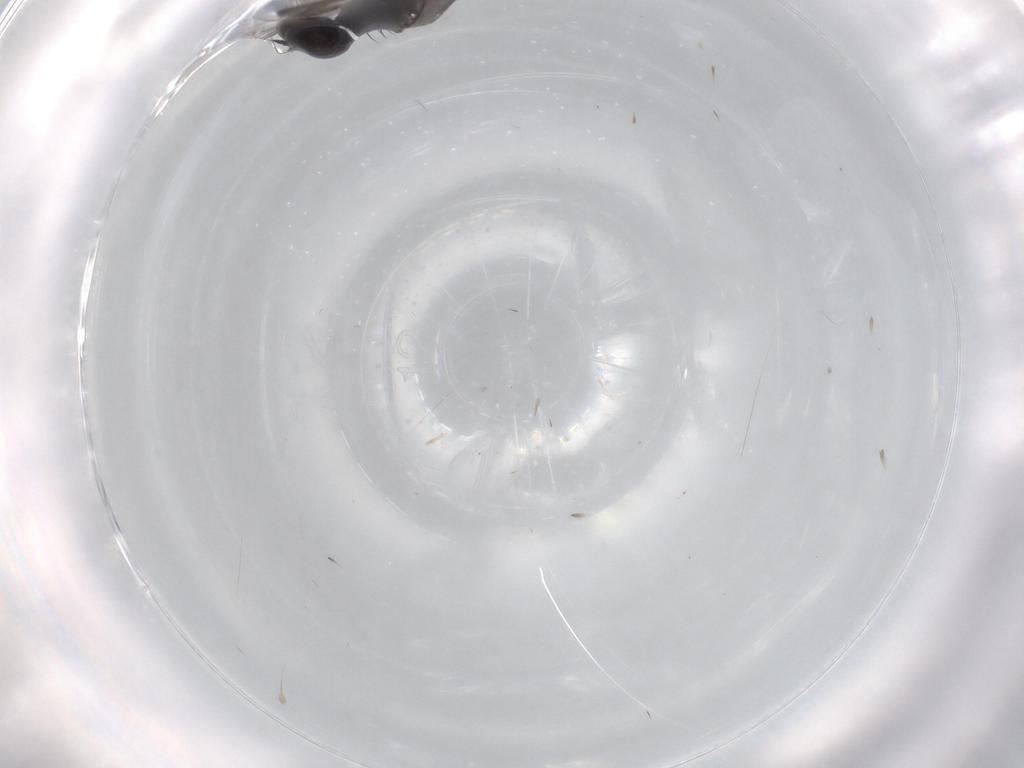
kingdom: Animalia
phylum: Arthropoda
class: Insecta
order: Diptera
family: Sciaridae
